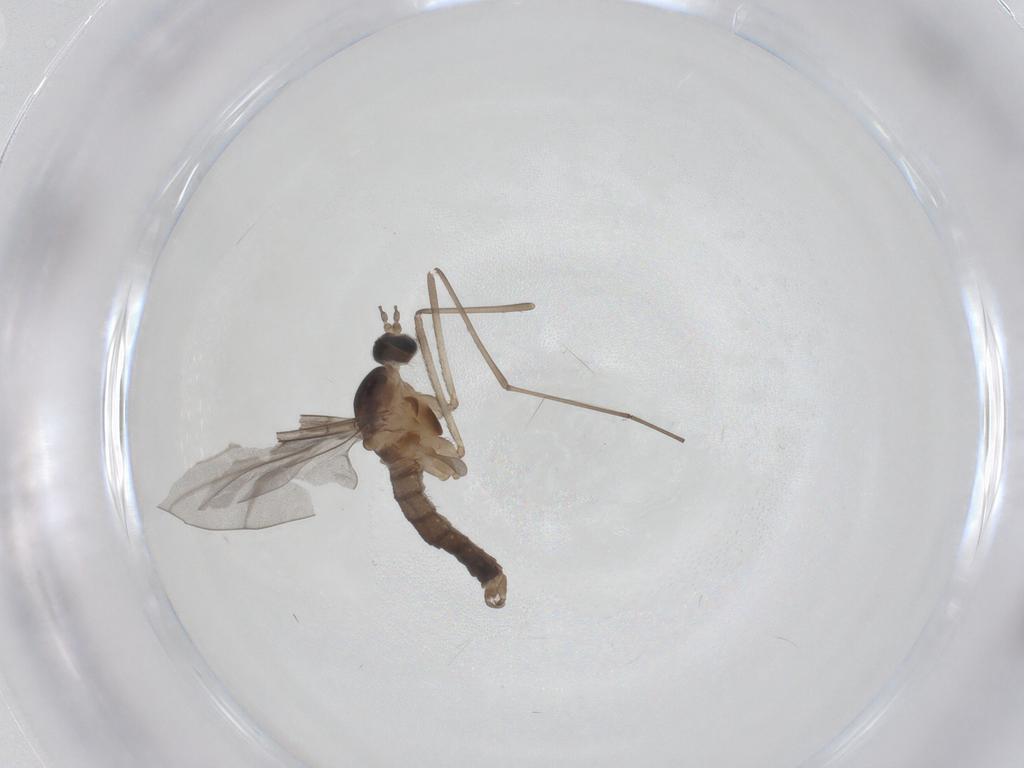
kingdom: Animalia
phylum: Arthropoda
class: Insecta
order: Diptera
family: Cecidomyiidae
